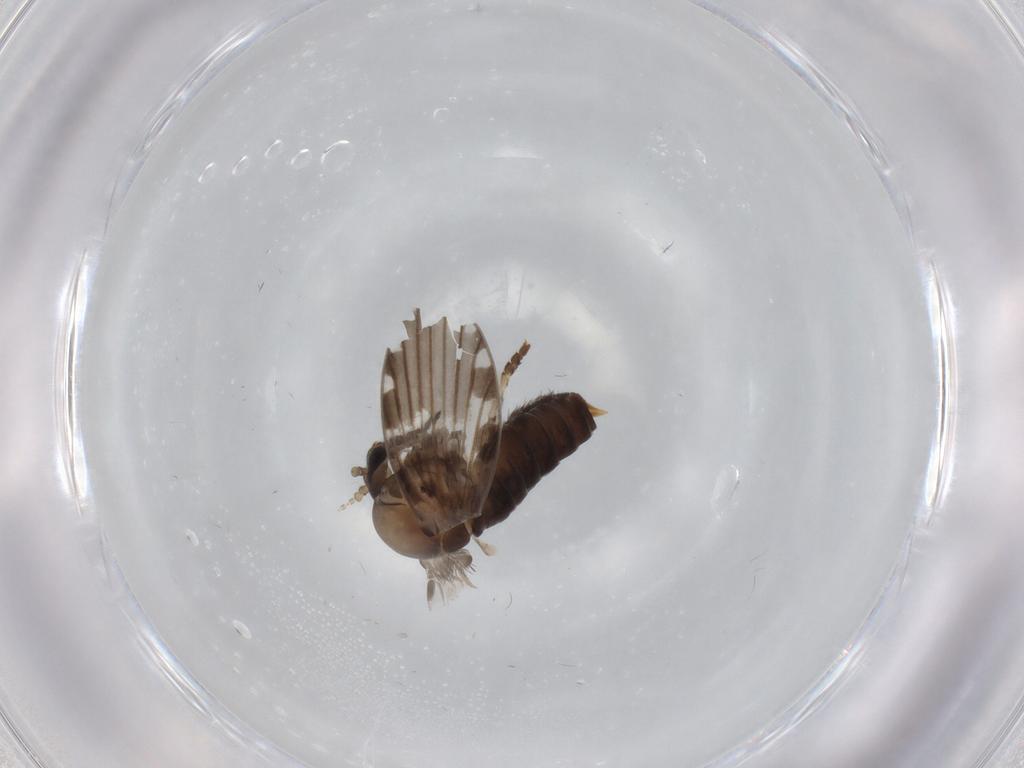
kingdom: Animalia
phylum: Arthropoda
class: Insecta
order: Diptera
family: Psychodidae
